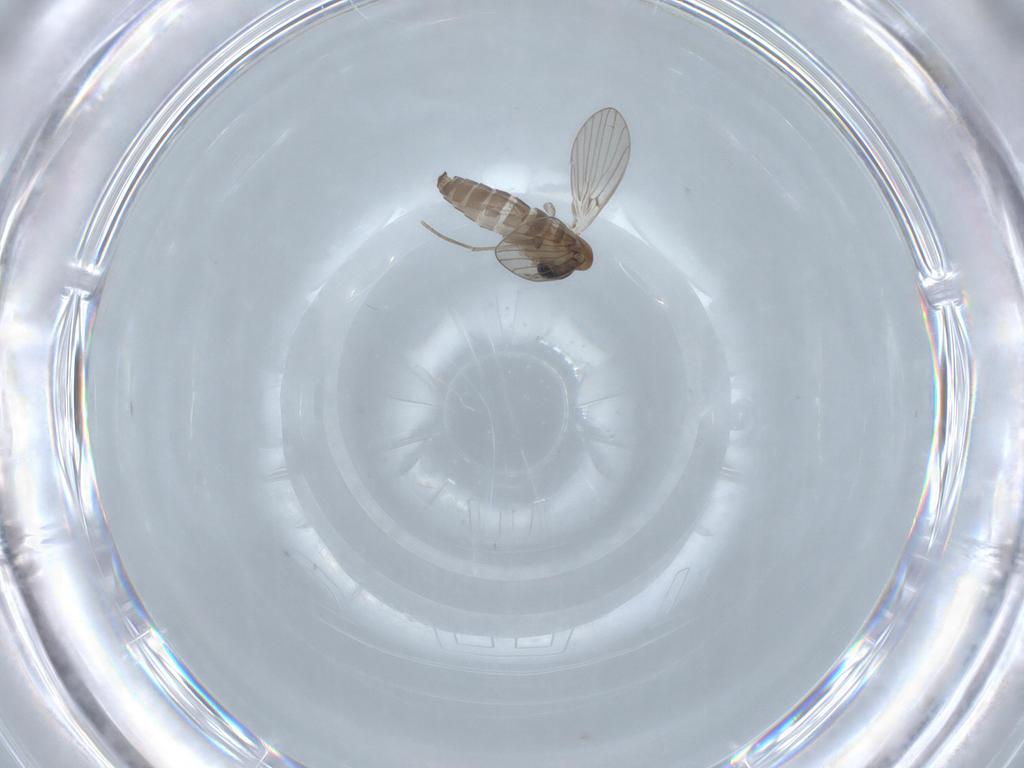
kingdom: Animalia
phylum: Arthropoda
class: Insecta
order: Diptera
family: Psychodidae
